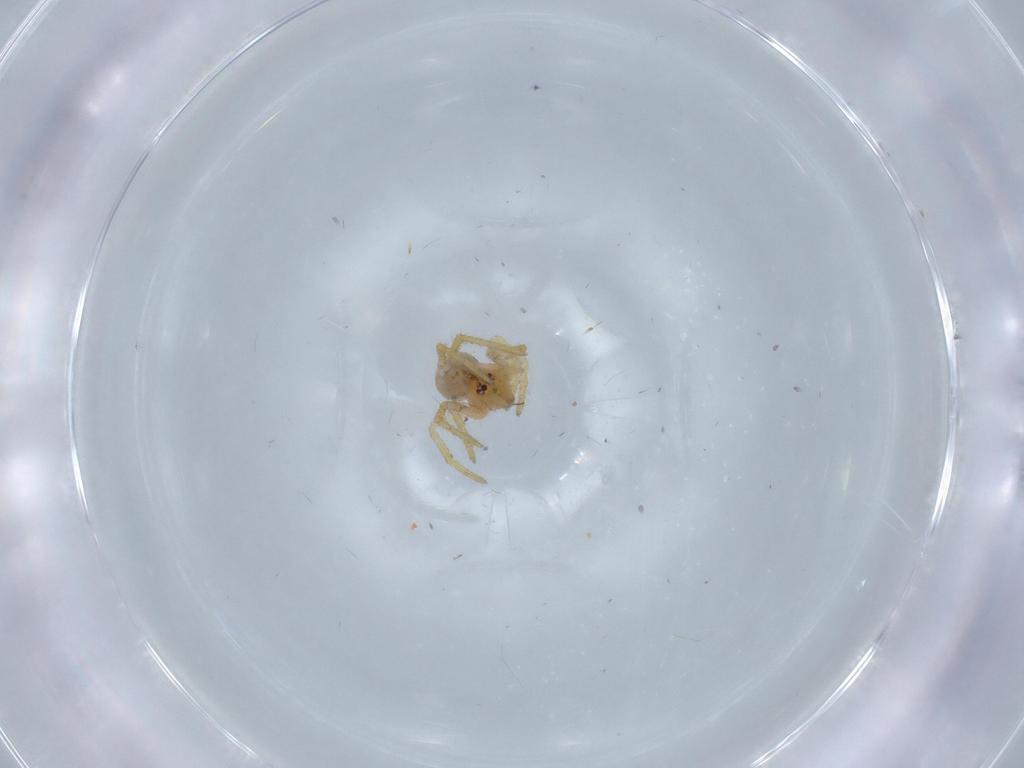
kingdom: Animalia
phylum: Arthropoda
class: Arachnida
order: Araneae
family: Theridiidae
